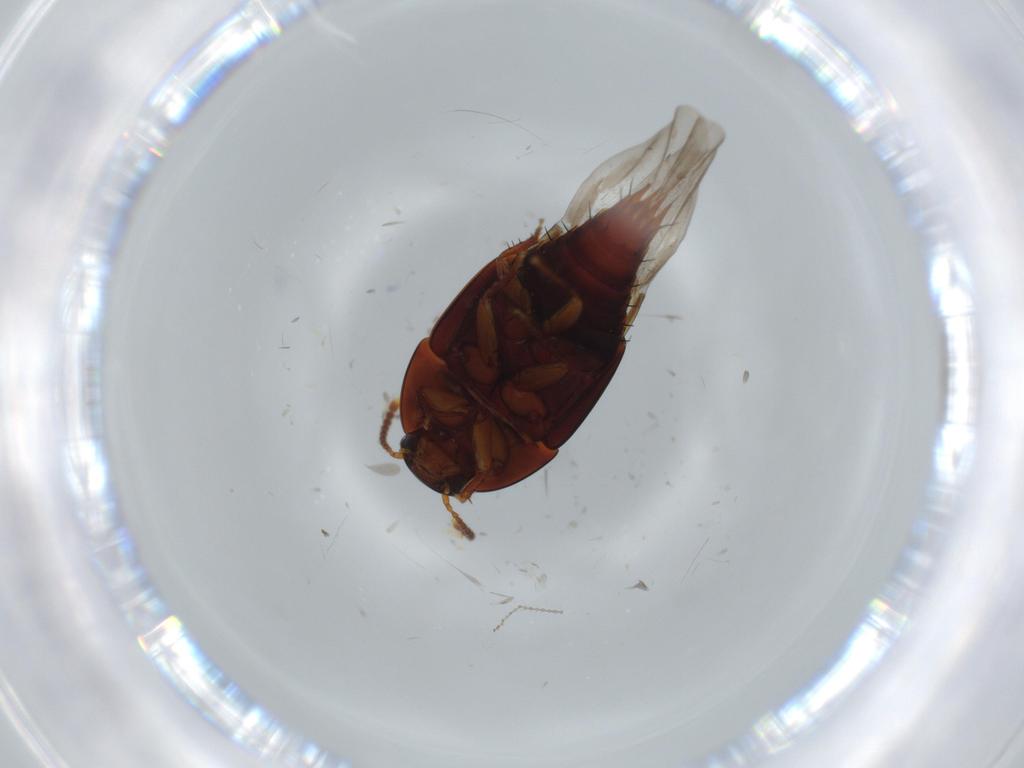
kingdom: Animalia
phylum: Arthropoda
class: Insecta
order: Coleoptera
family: Staphylinidae
